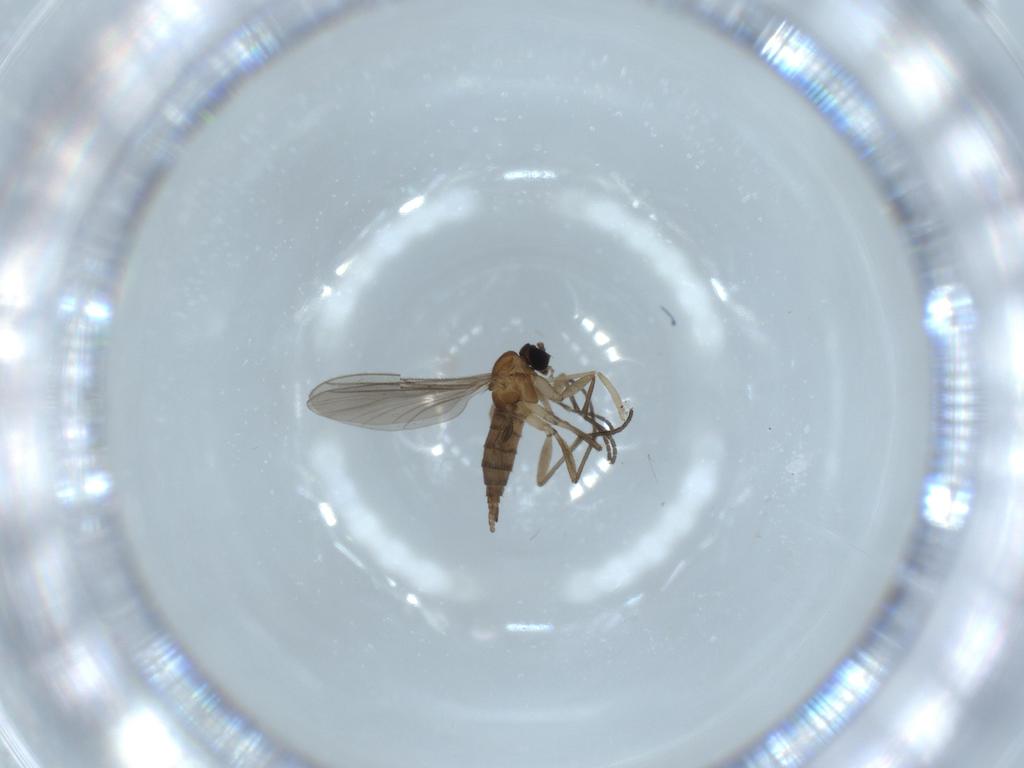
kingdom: Animalia
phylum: Arthropoda
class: Insecta
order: Diptera
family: Sciaridae
